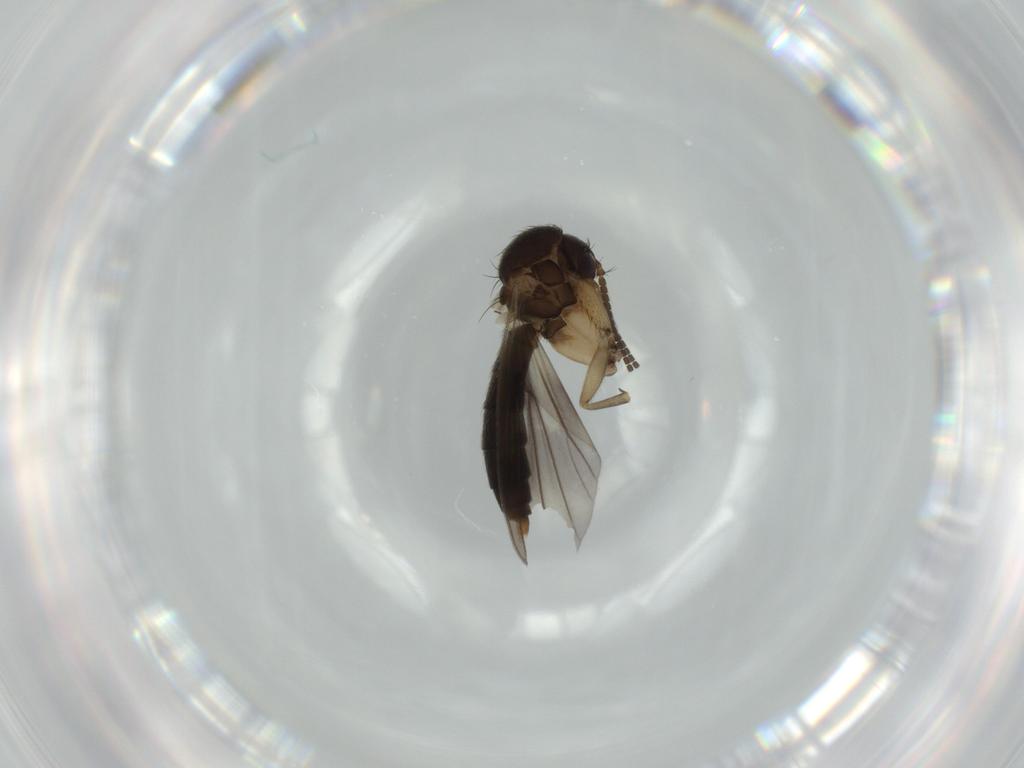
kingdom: Animalia
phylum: Arthropoda
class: Insecta
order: Diptera
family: Mycetophilidae
